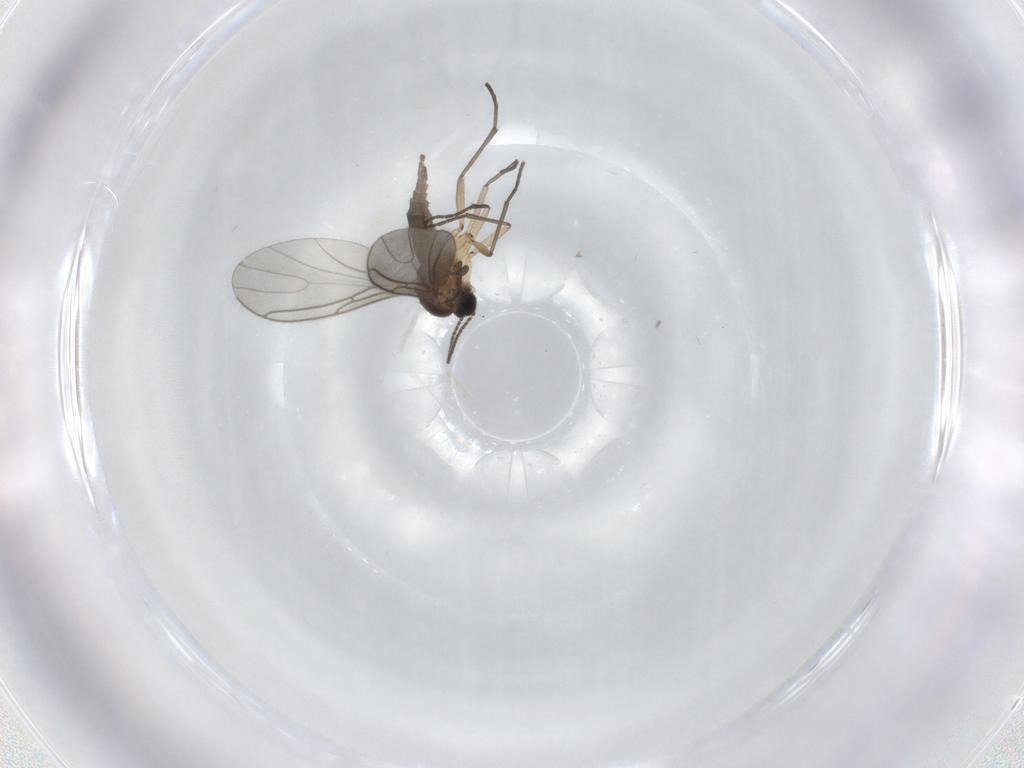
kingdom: Animalia
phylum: Arthropoda
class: Insecta
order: Diptera
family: Sciaridae
